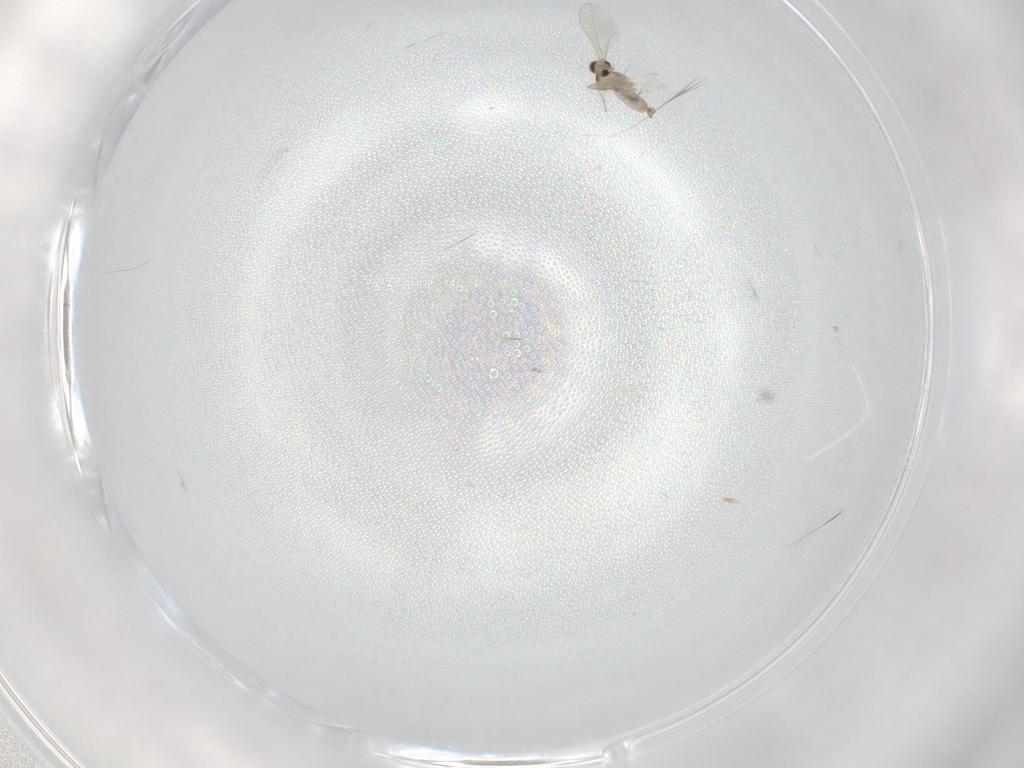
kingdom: Animalia
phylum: Arthropoda
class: Insecta
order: Diptera
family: Cecidomyiidae
